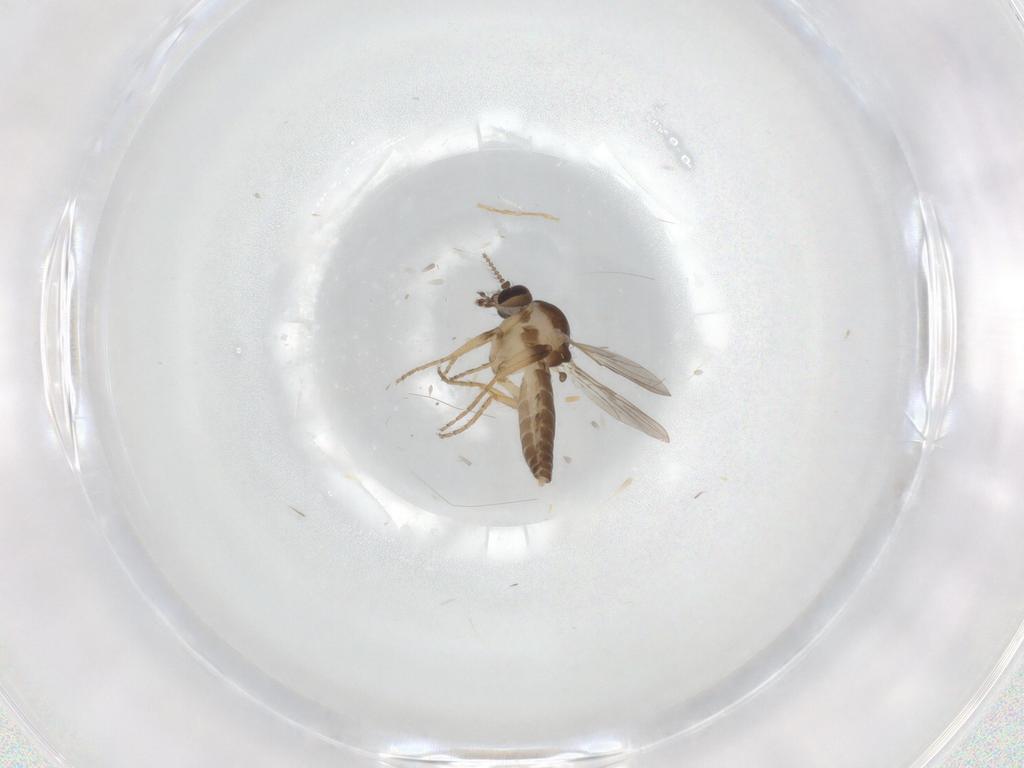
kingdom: Animalia
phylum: Arthropoda
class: Insecta
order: Diptera
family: Ceratopogonidae
